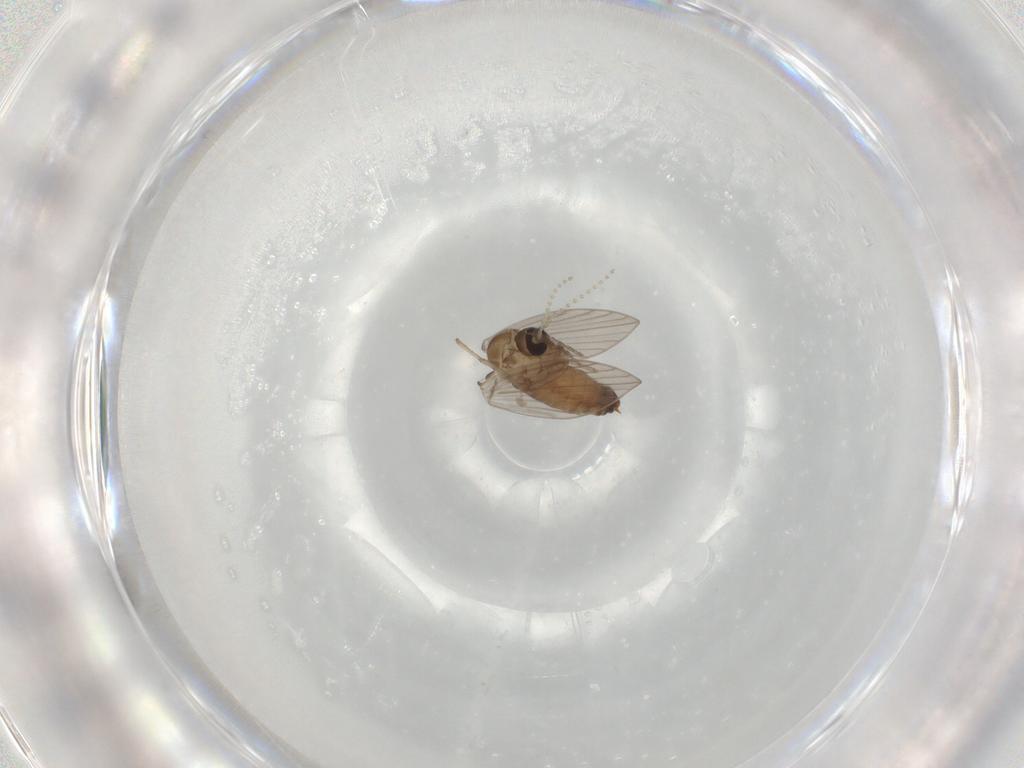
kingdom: Animalia
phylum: Arthropoda
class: Insecta
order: Diptera
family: Psychodidae
